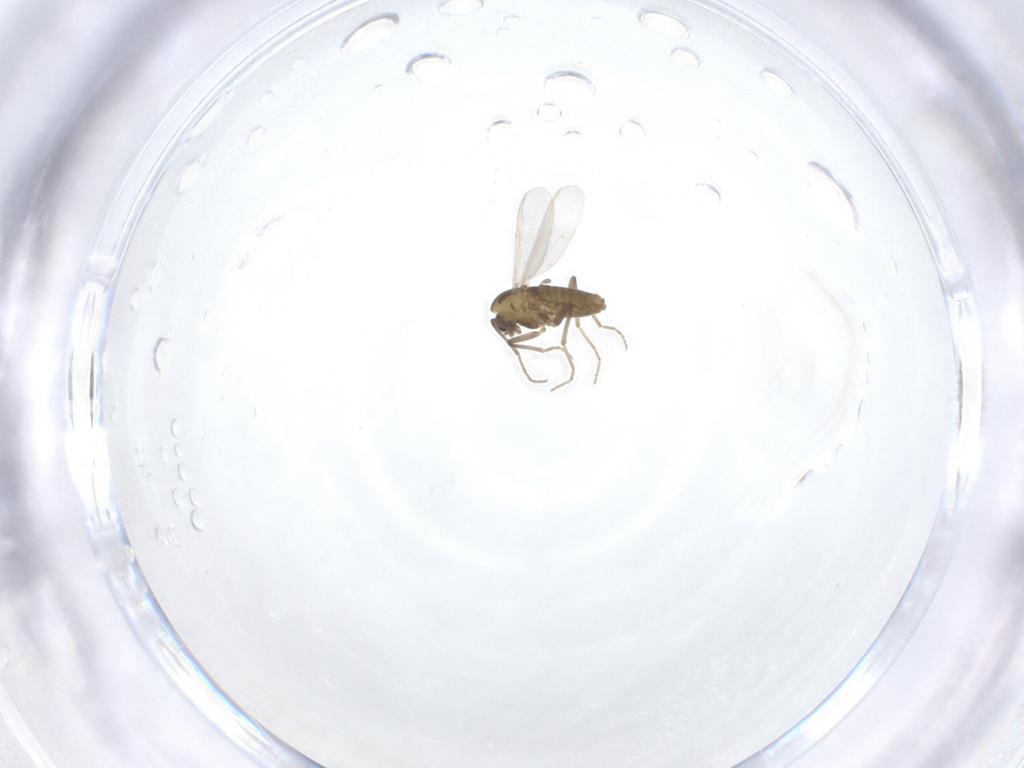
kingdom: Animalia
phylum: Arthropoda
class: Insecta
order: Diptera
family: Chironomidae
